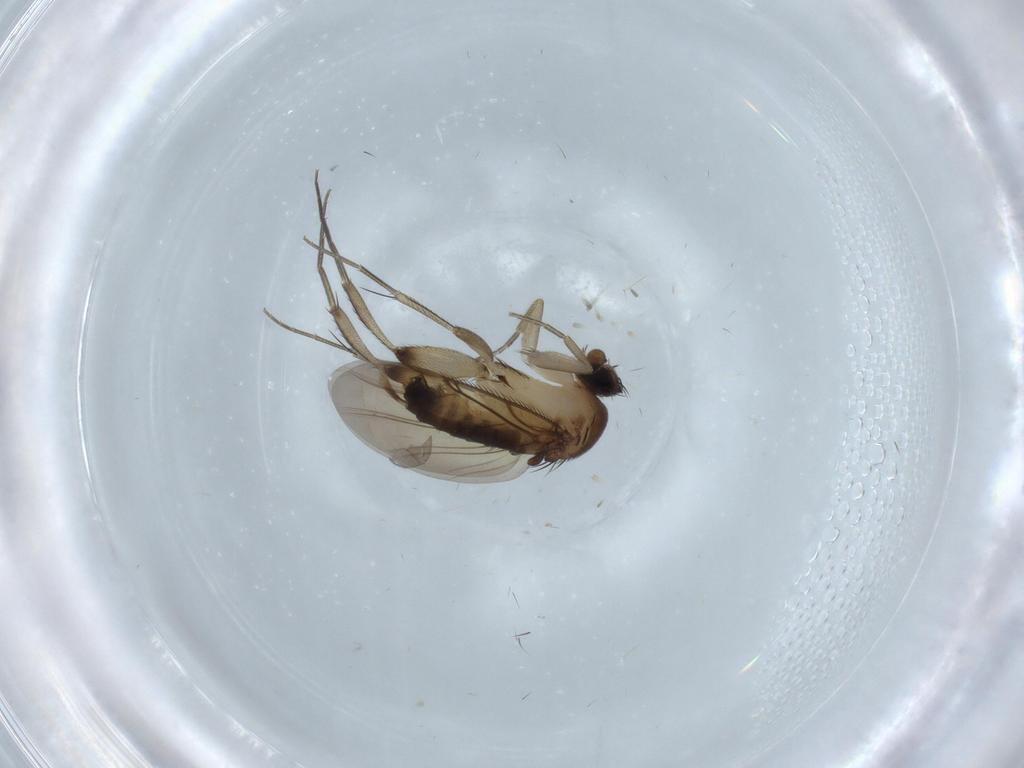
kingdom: Animalia
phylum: Arthropoda
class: Insecta
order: Diptera
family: Phoridae
